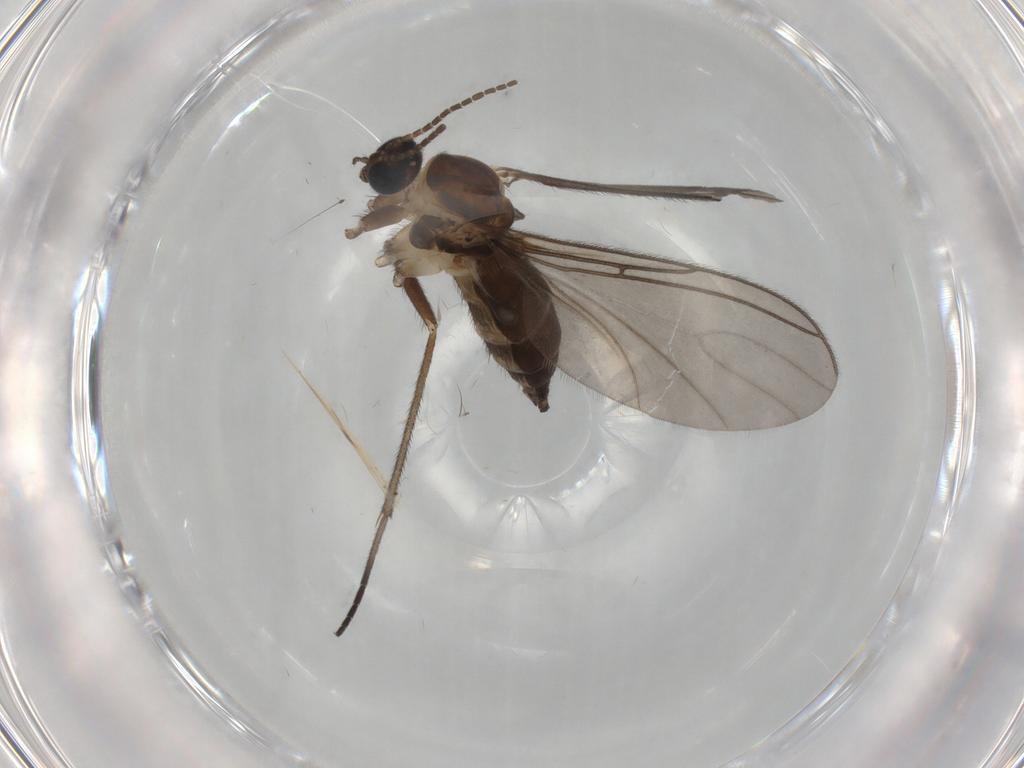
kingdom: Animalia
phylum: Arthropoda
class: Insecta
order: Diptera
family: Sciaridae
